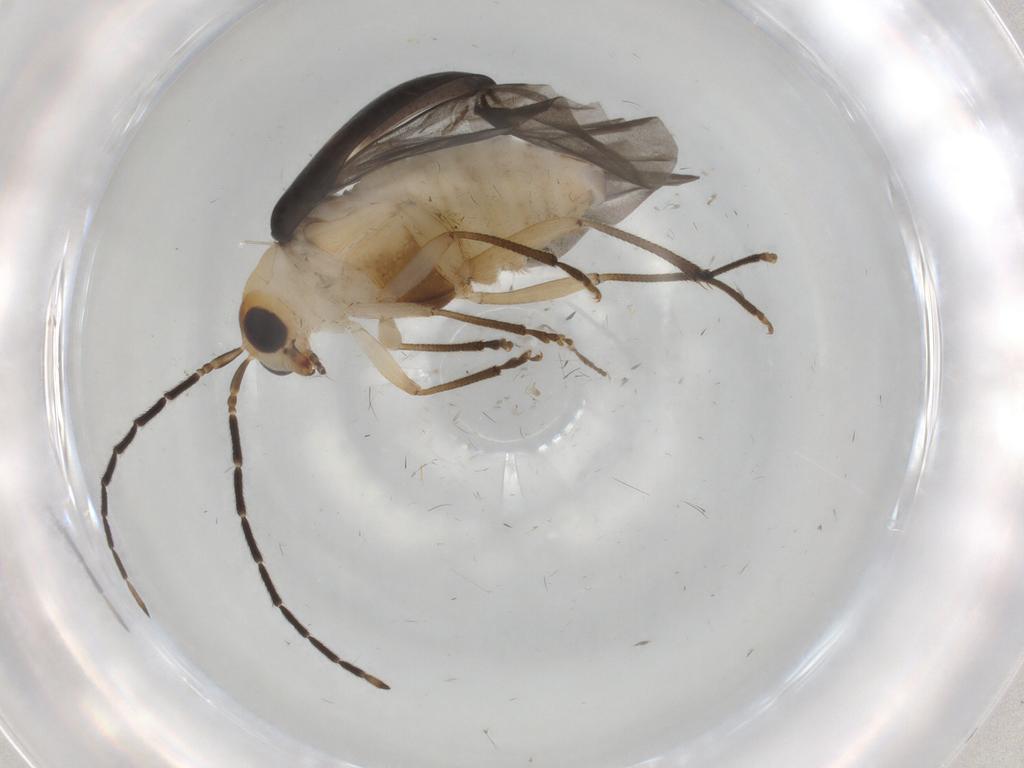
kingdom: Animalia
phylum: Arthropoda
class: Insecta
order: Coleoptera
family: Chrysomelidae
